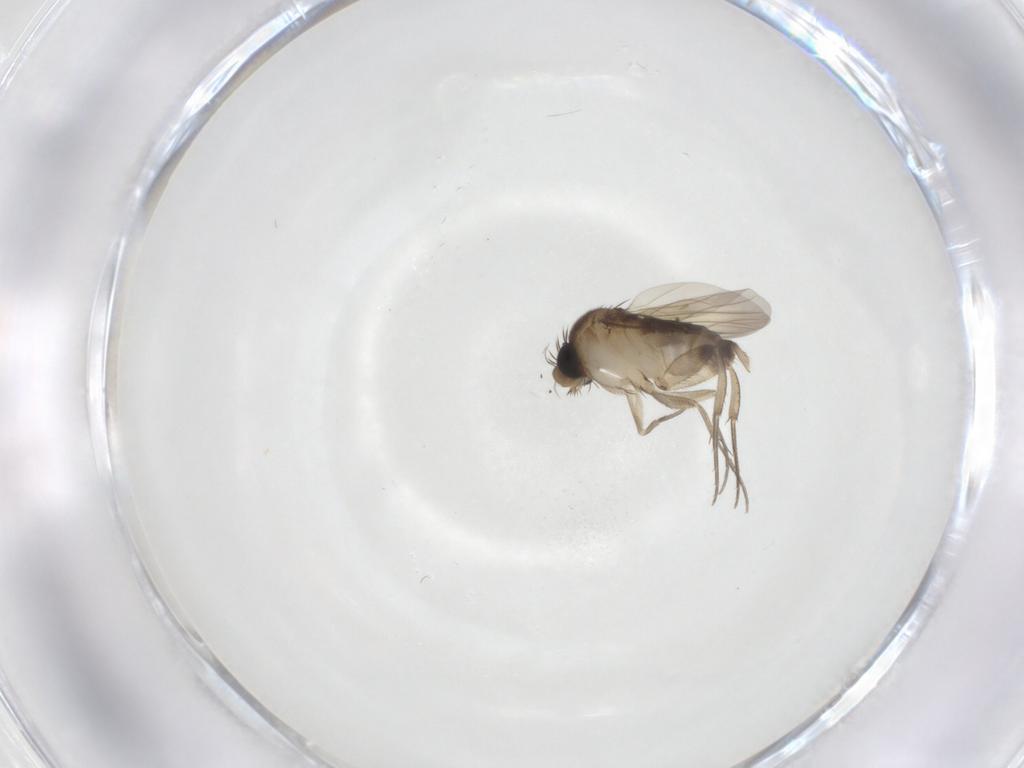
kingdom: Animalia
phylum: Arthropoda
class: Insecta
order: Diptera
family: Phoridae
